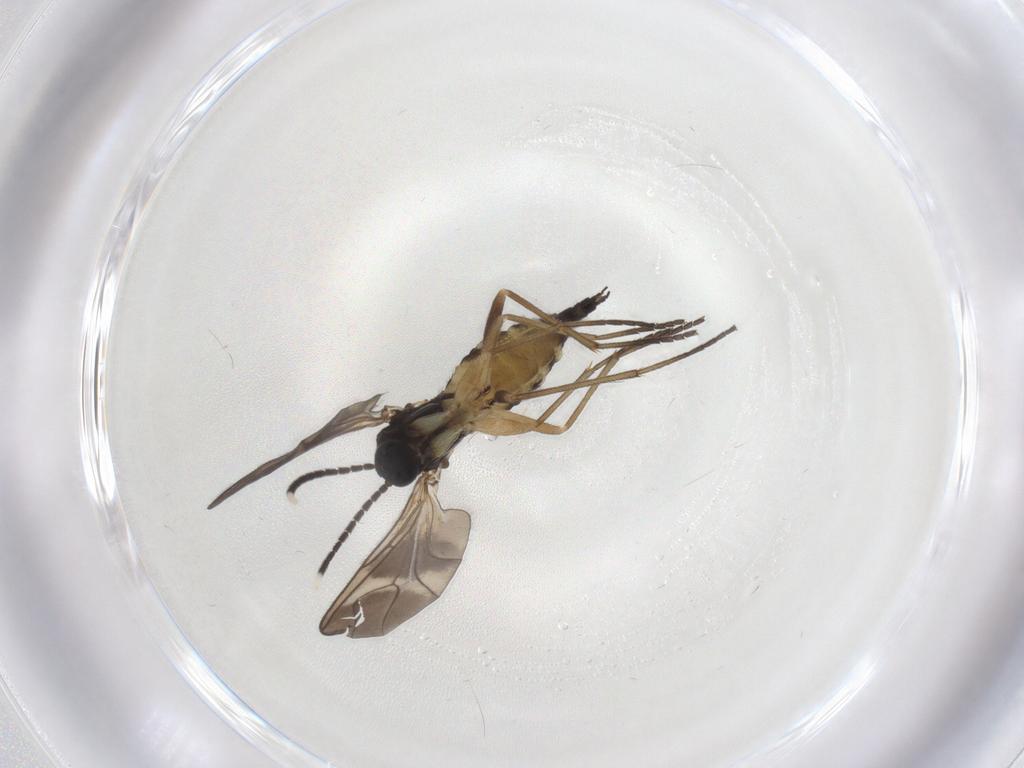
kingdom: Animalia
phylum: Arthropoda
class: Insecta
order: Diptera
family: Sciaridae
